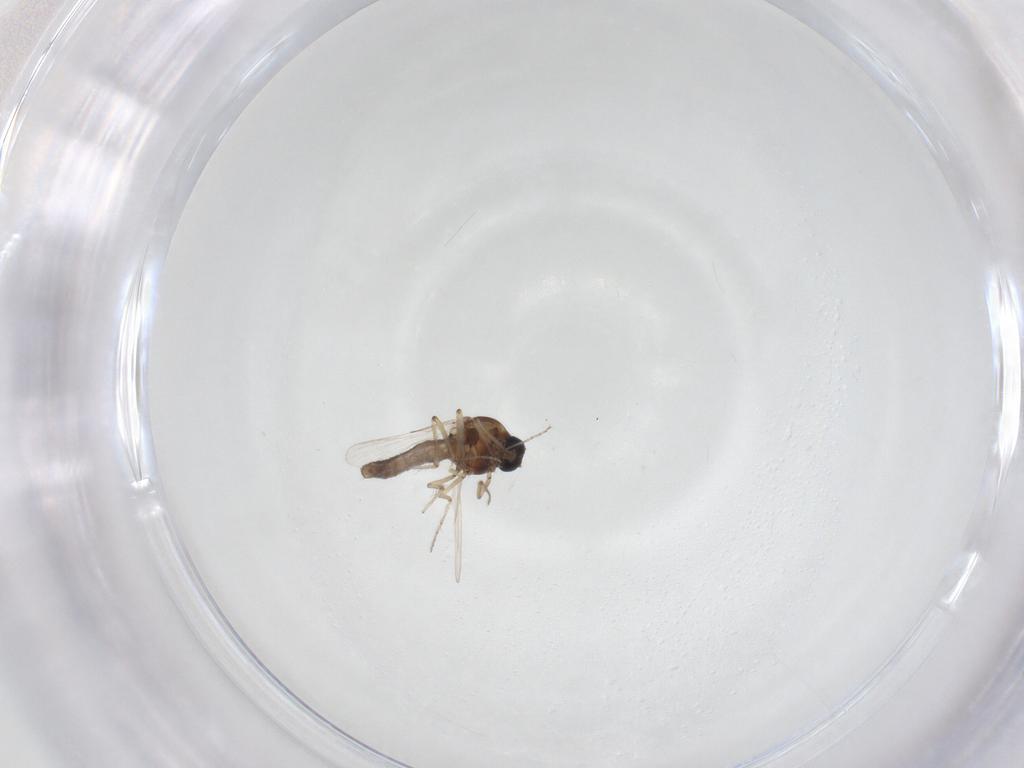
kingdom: Animalia
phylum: Arthropoda
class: Insecta
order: Diptera
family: Ceratopogonidae
